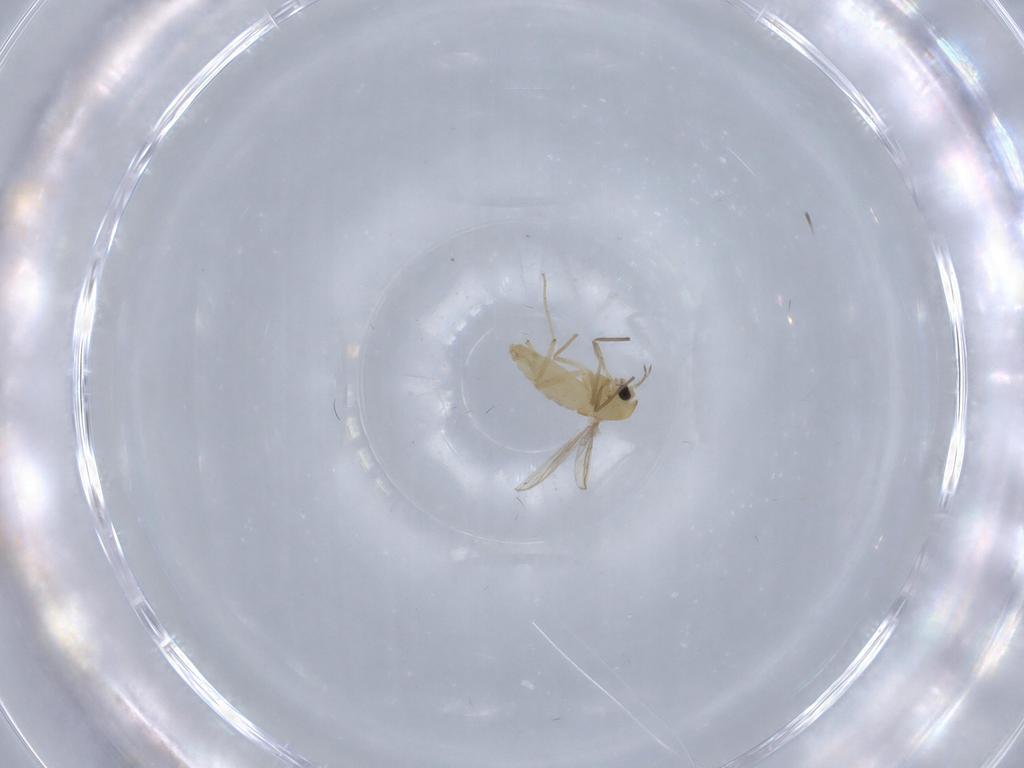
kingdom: Animalia
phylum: Arthropoda
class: Insecta
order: Diptera
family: Chironomidae
